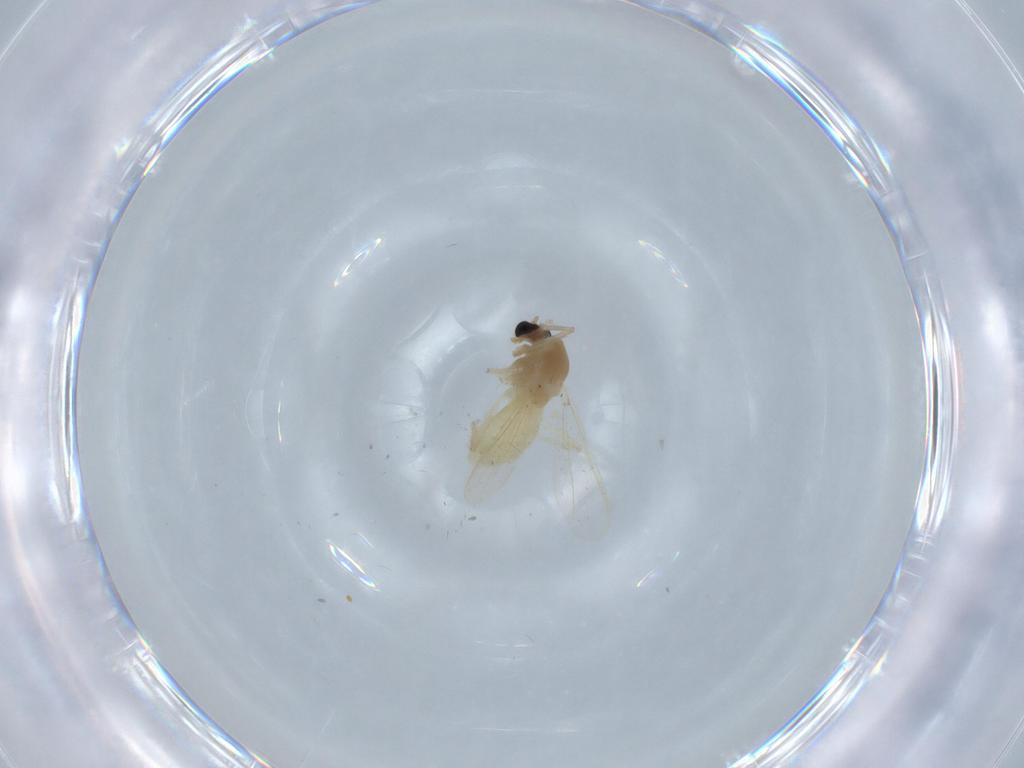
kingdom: Animalia
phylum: Arthropoda
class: Insecta
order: Diptera
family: Chironomidae
